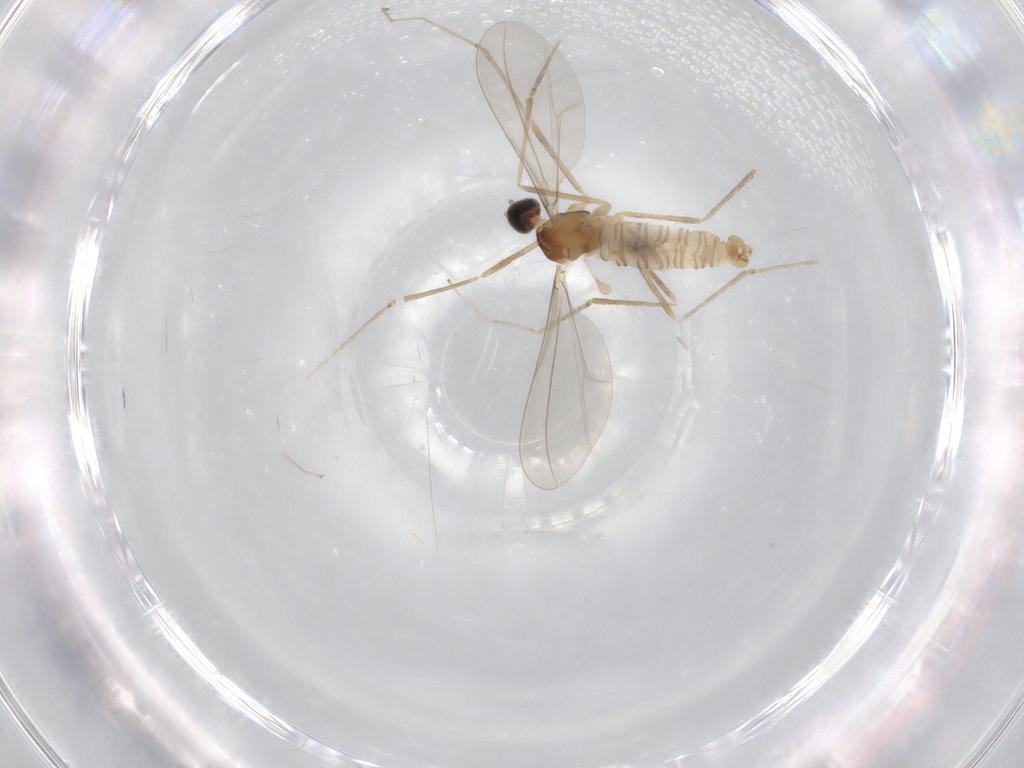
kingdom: Animalia
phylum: Arthropoda
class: Insecta
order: Diptera
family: Cecidomyiidae
